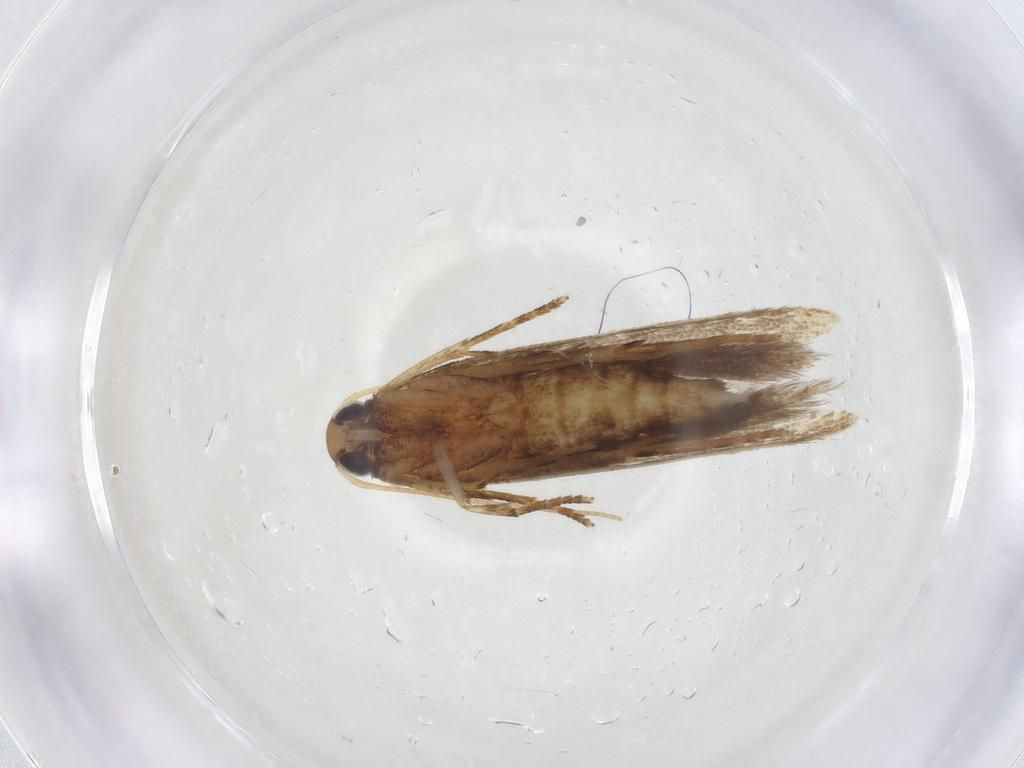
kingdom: Animalia
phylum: Arthropoda
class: Insecta
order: Lepidoptera
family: Gelechiidae
